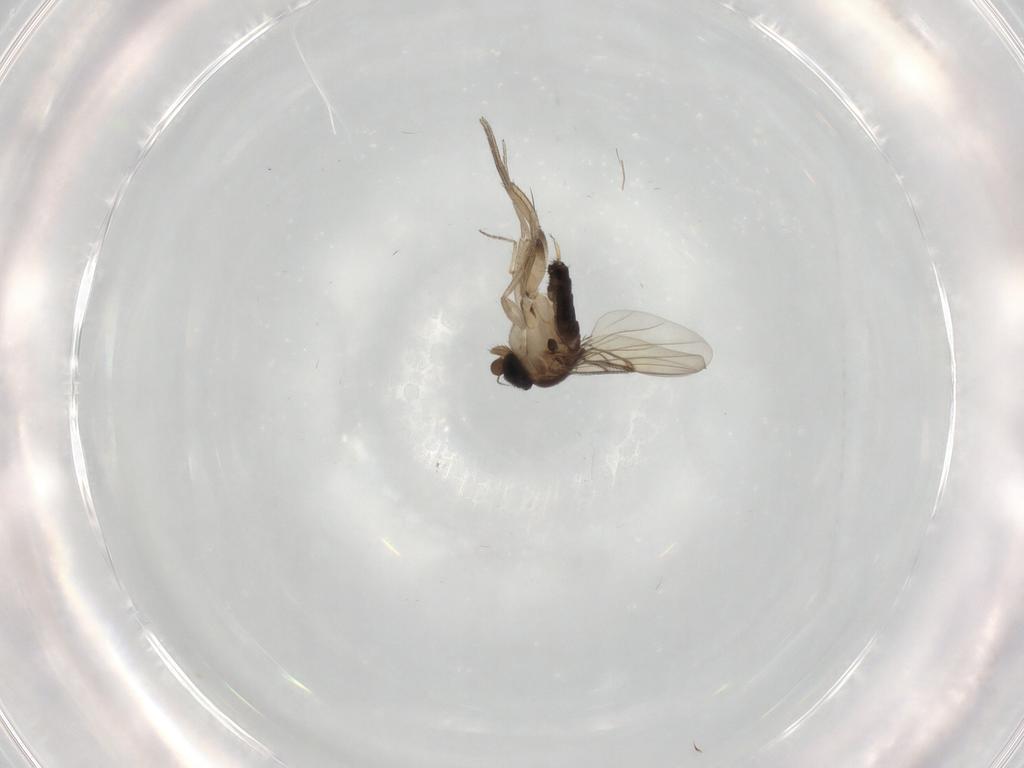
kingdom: Animalia
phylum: Arthropoda
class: Insecta
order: Diptera
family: Phoridae
